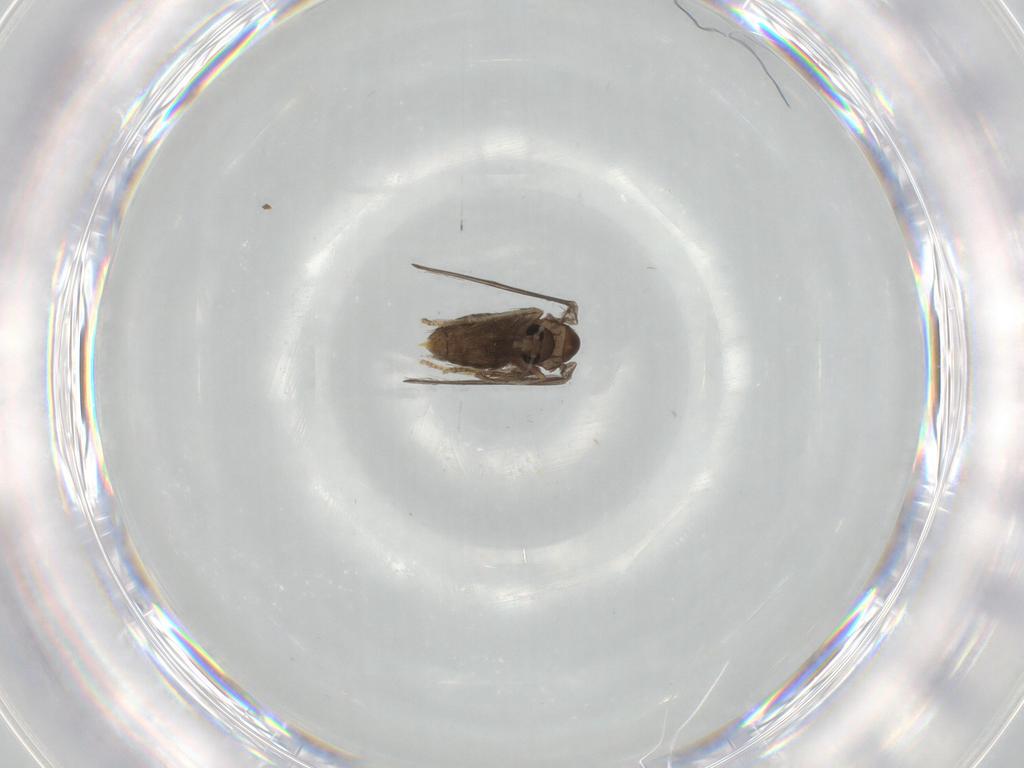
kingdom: Animalia
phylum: Arthropoda
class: Insecta
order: Diptera
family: Psychodidae
